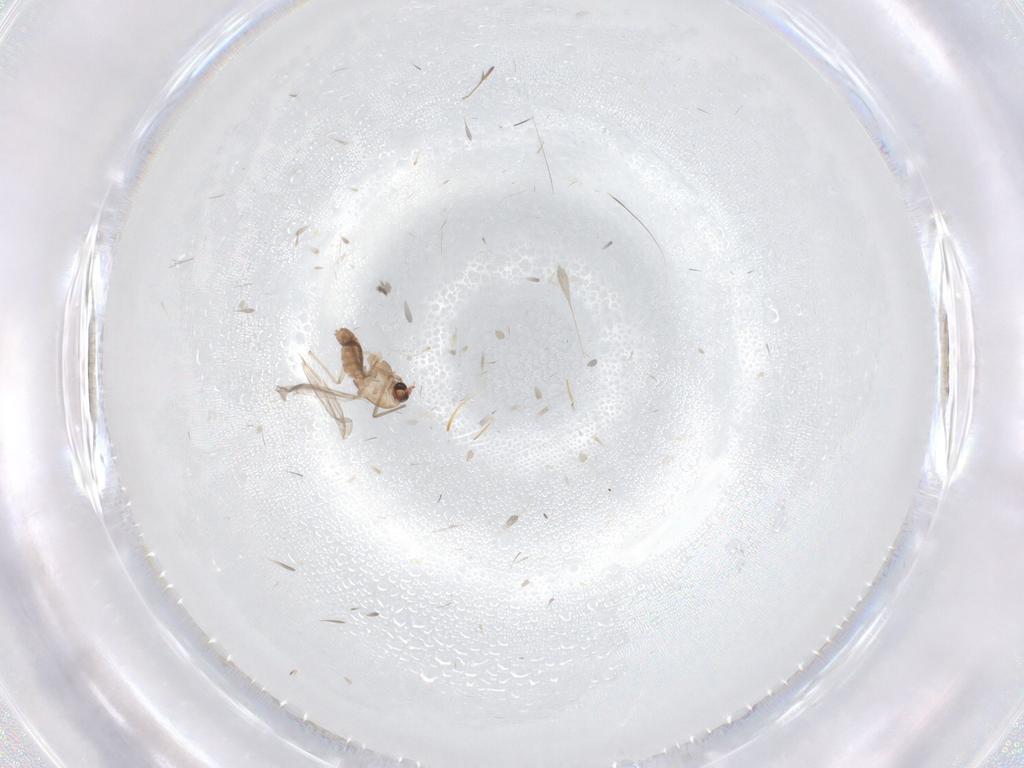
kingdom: Animalia
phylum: Arthropoda
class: Insecta
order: Diptera
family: Chironomidae
